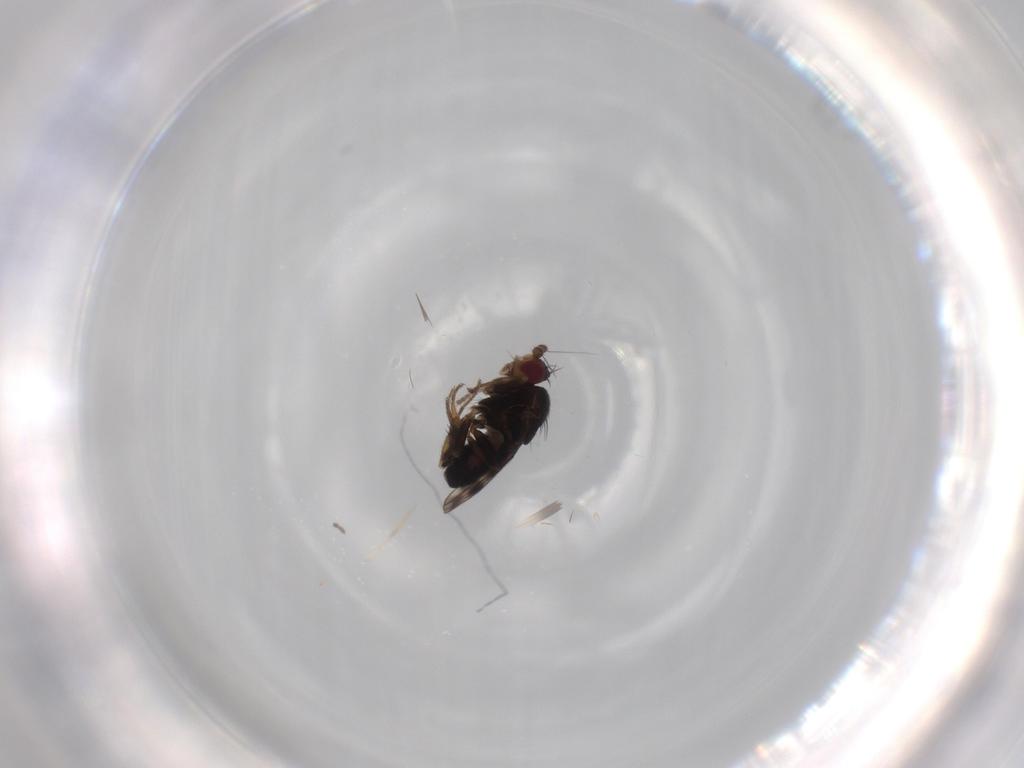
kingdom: Animalia
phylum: Arthropoda
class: Insecta
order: Diptera
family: Sphaeroceridae
